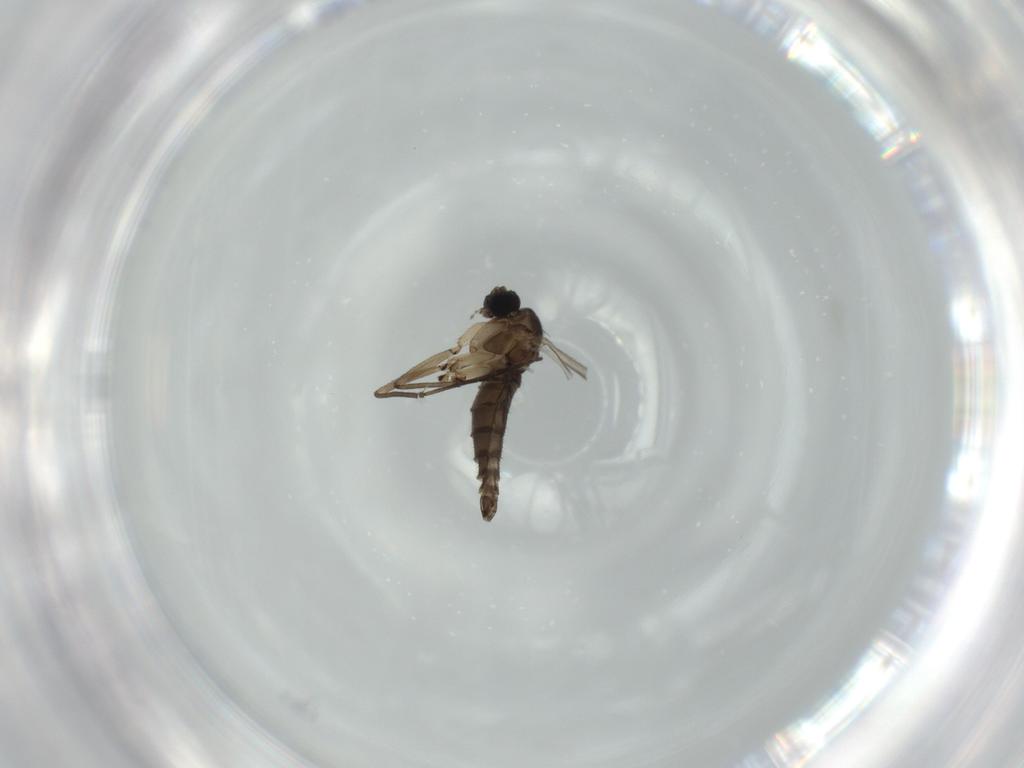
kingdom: Animalia
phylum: Arthropoda
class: Insecta
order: Diptera
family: Sciaridae
